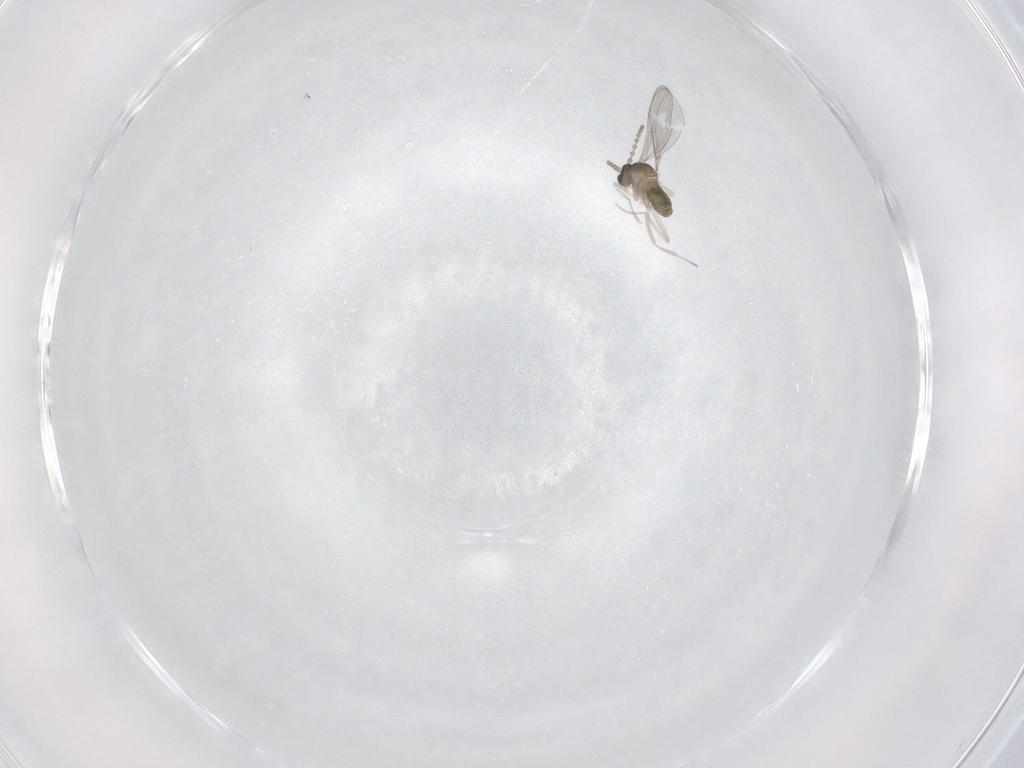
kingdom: Animalia
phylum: Arthropoda
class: Insecta
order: Diptera
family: Cecidomyiidae
